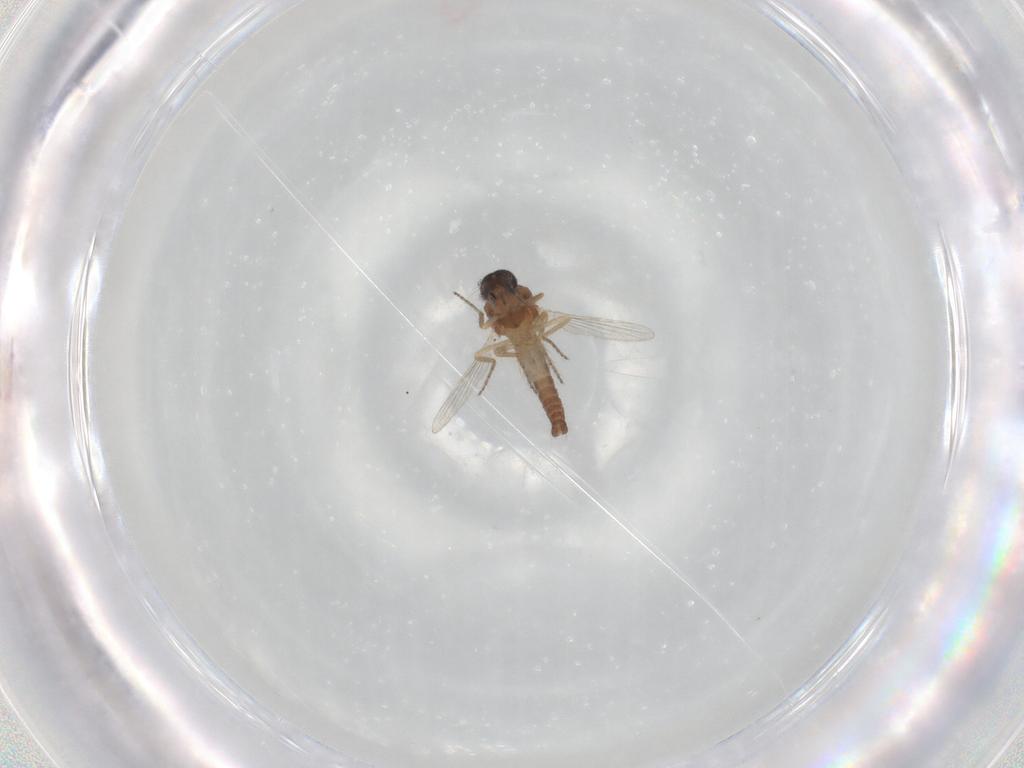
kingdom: Animalia
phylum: Arthropoda
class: Insecta
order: Diptera
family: Ceratopogonidae
